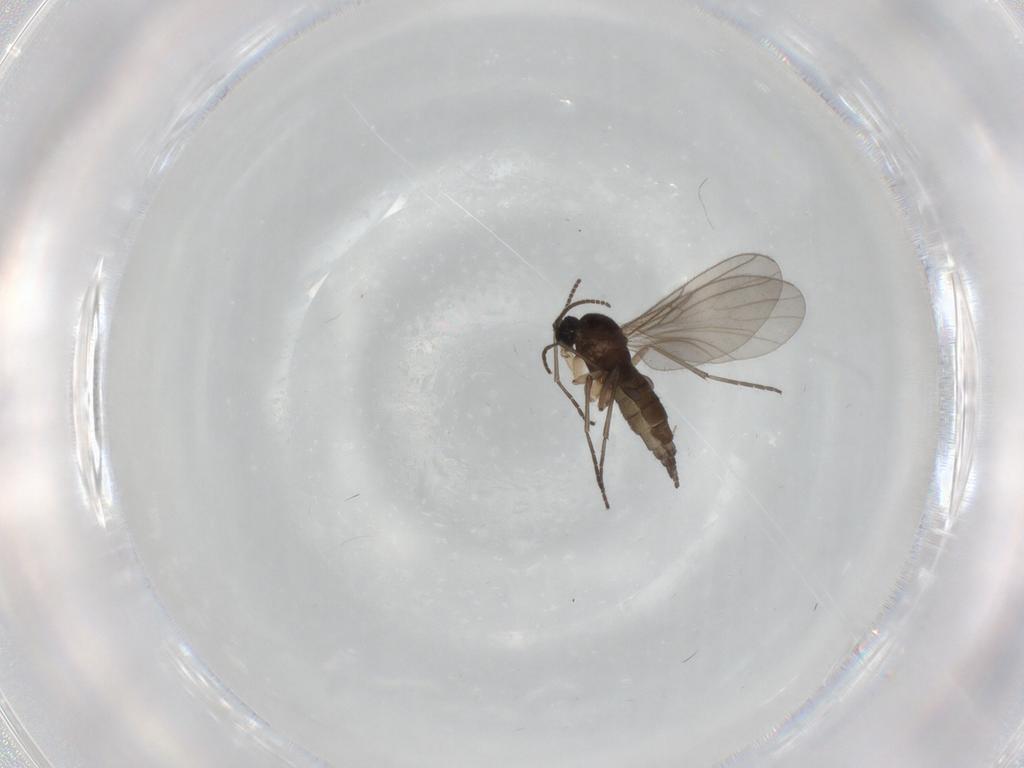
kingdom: Animalia
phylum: Arthropoda
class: Insecta
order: Diptera
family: Sciaridae
